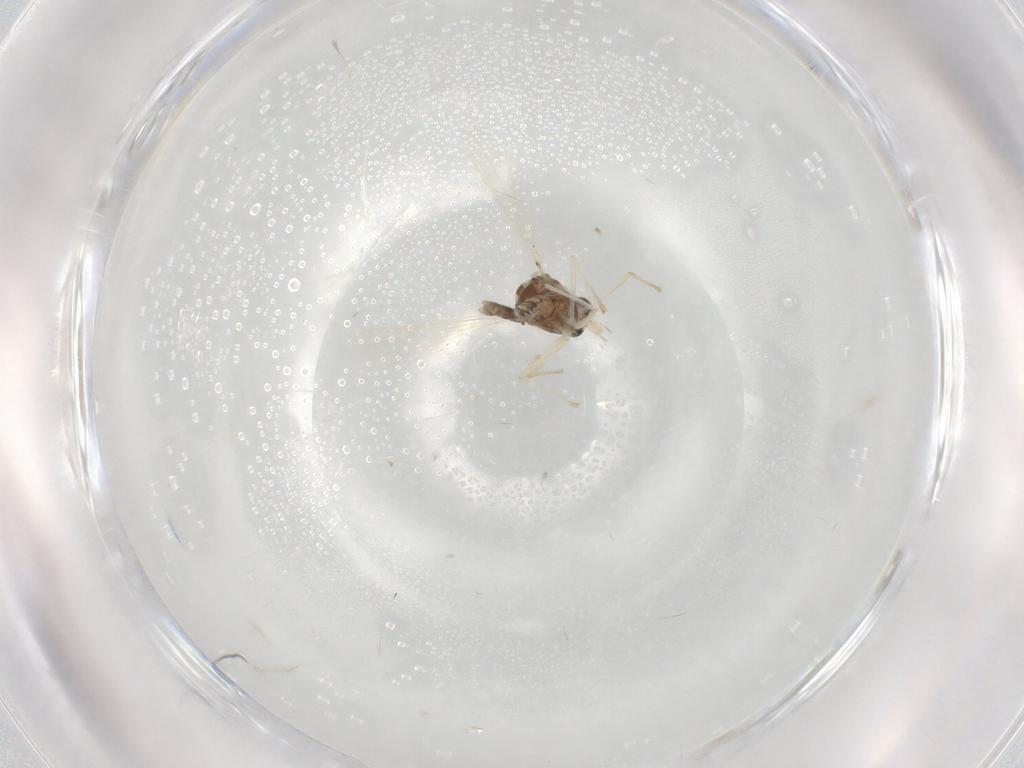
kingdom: Animalia
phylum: Arthropoda
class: Insecta
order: Diptera
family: Chironomidae
